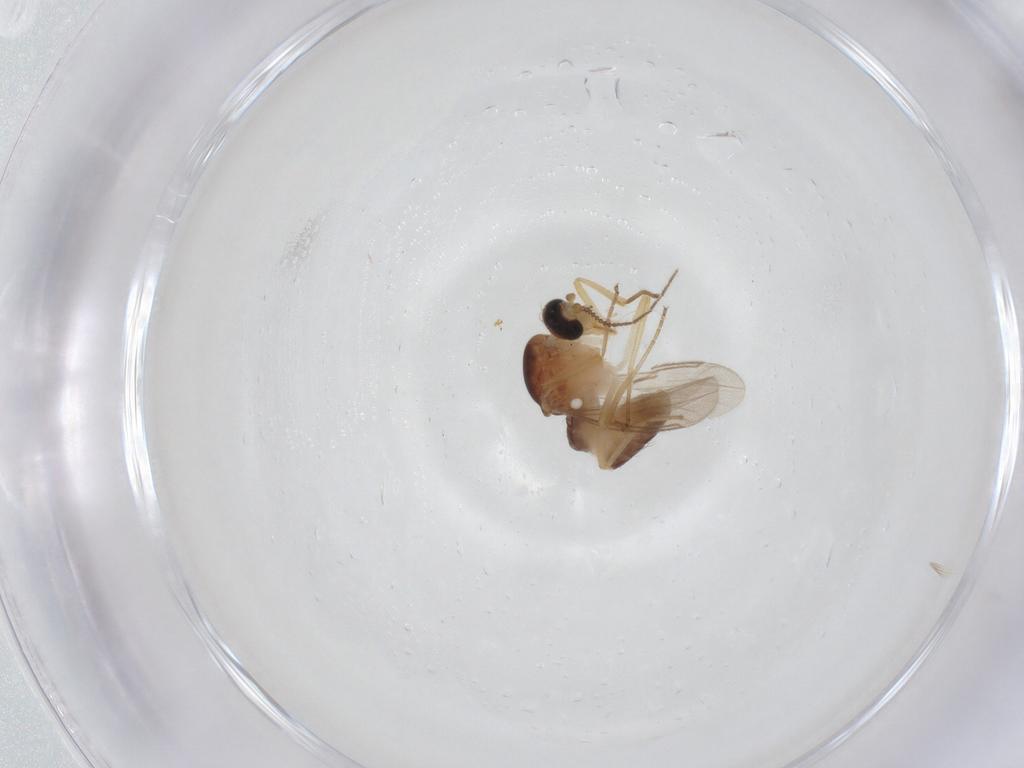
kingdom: Animalia
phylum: Arthropoda
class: Insecta
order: Diptera
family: Ceratopogonidae
